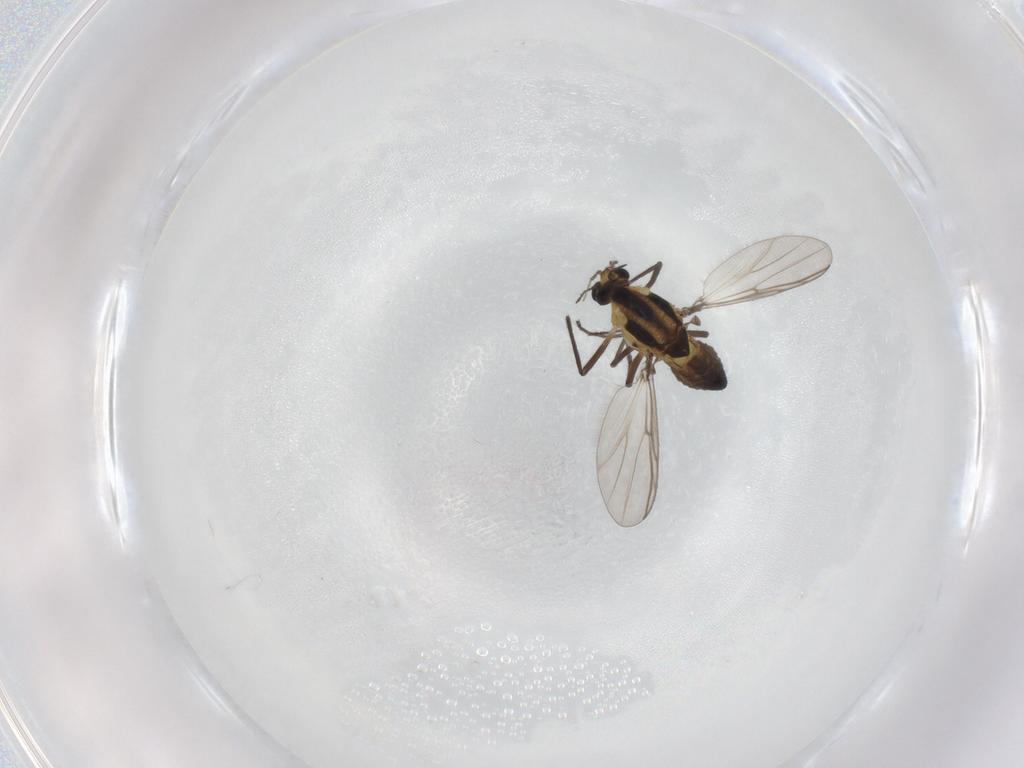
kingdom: Animalia
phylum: Arthropoda
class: Insecta
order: Diptera
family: Chironomidae
